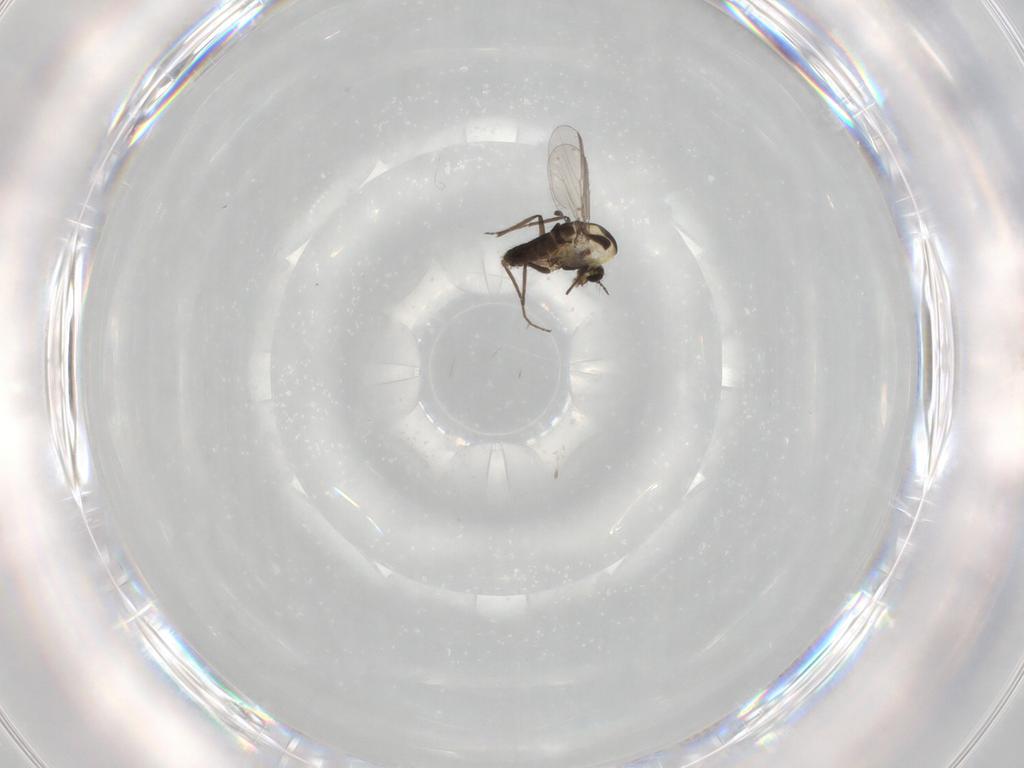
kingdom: Animalia
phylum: Arthropoda
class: Insecta
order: Diptera
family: Chironomidae
